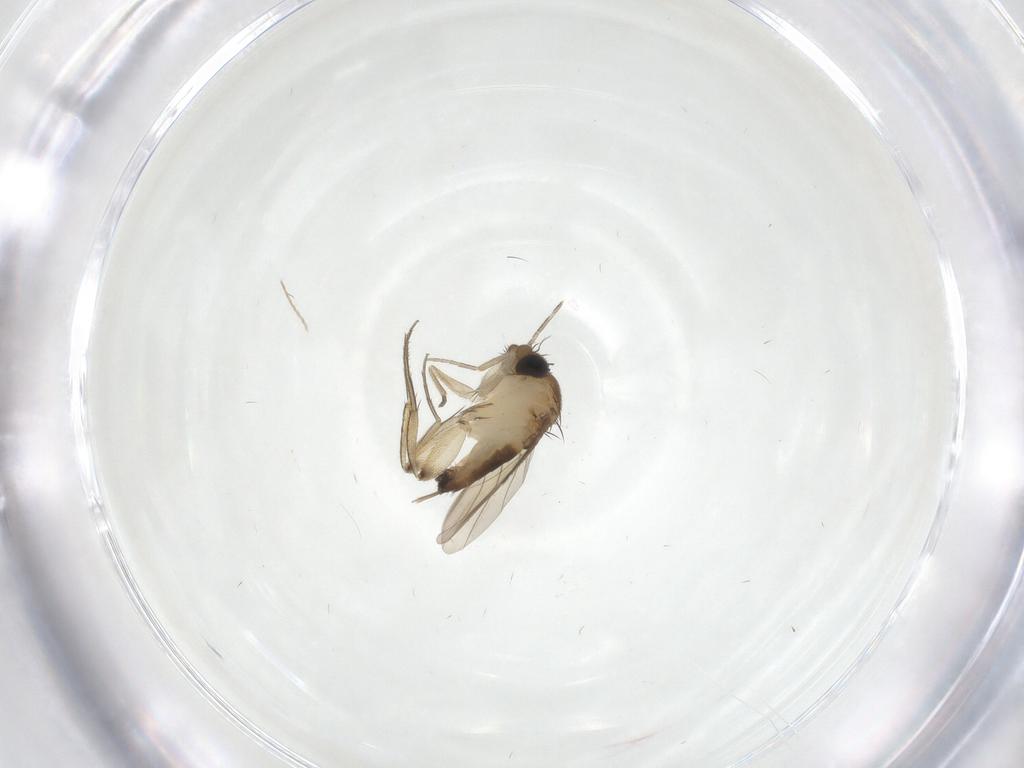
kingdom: Animalia
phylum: Arthropoda
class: Insecta
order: Diptera
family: Phoridae
